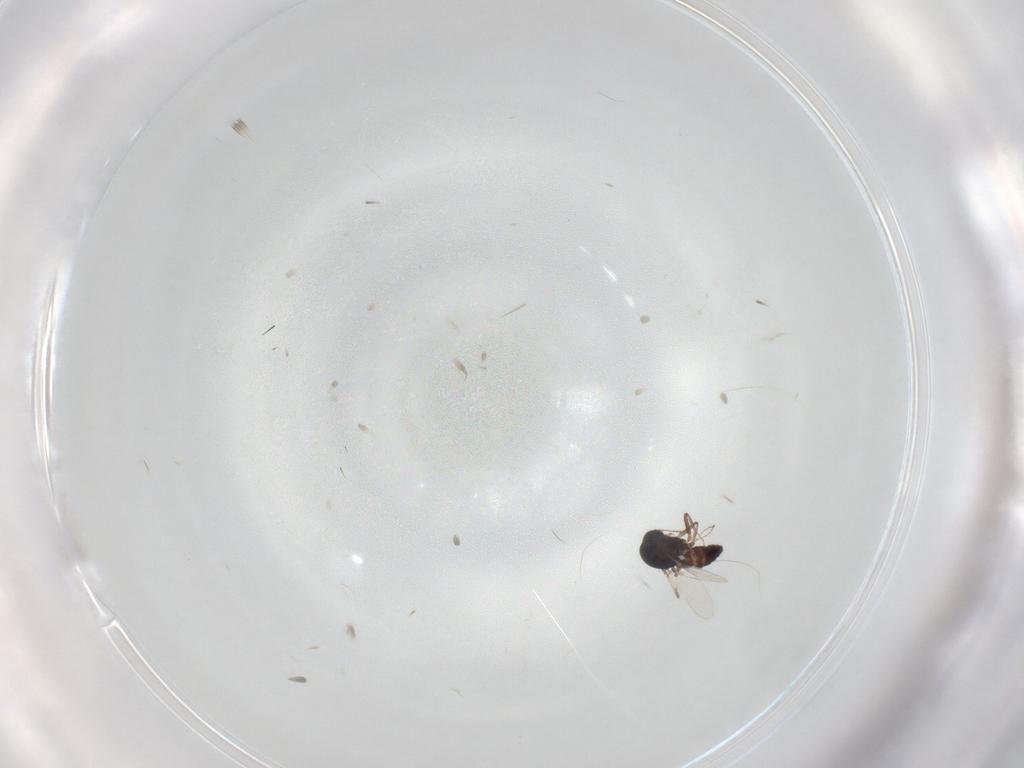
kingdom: Animalia
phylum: Arthropoda
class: Insecta
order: Diptera
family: Ceratopogonidae
